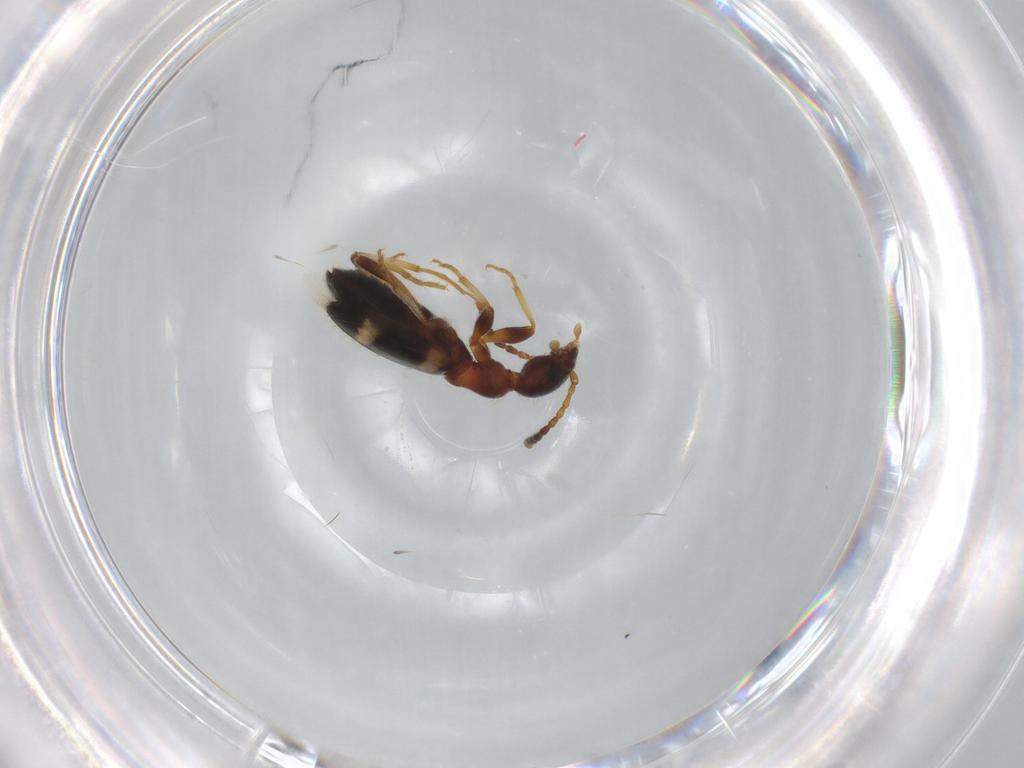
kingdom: Animalia
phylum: Arthropoda
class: Insecta
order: Coleoptera
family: Anthicidae
